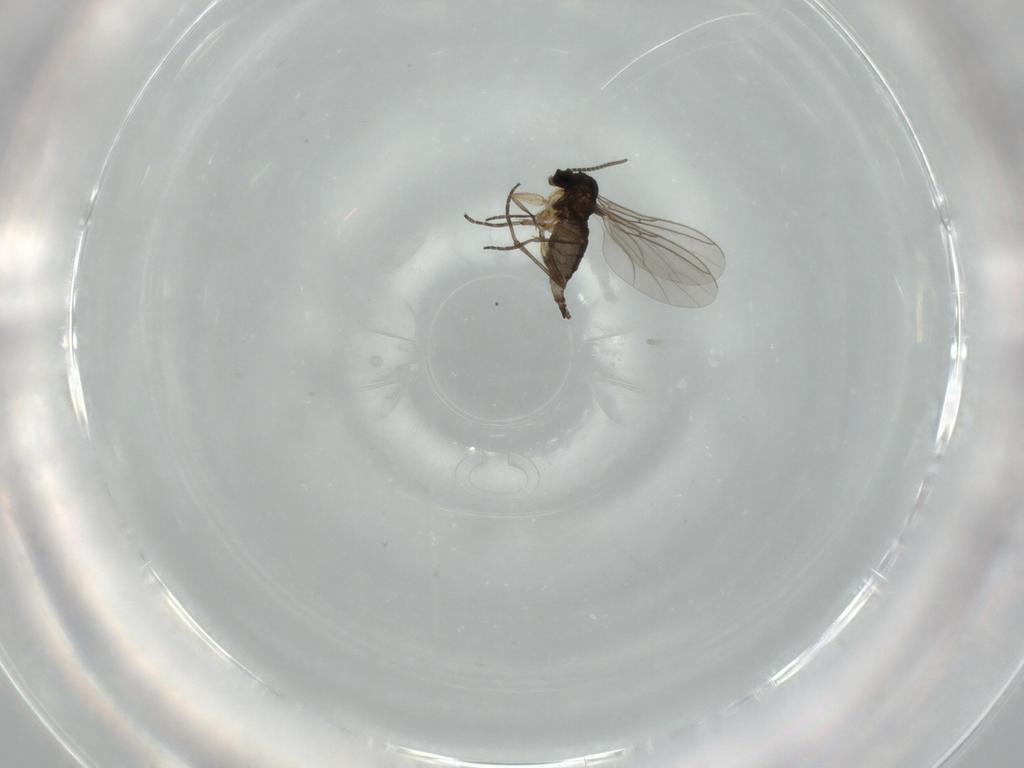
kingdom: Animalia
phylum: Arthropoda
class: Insecta
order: Diptera
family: Sciaridae
